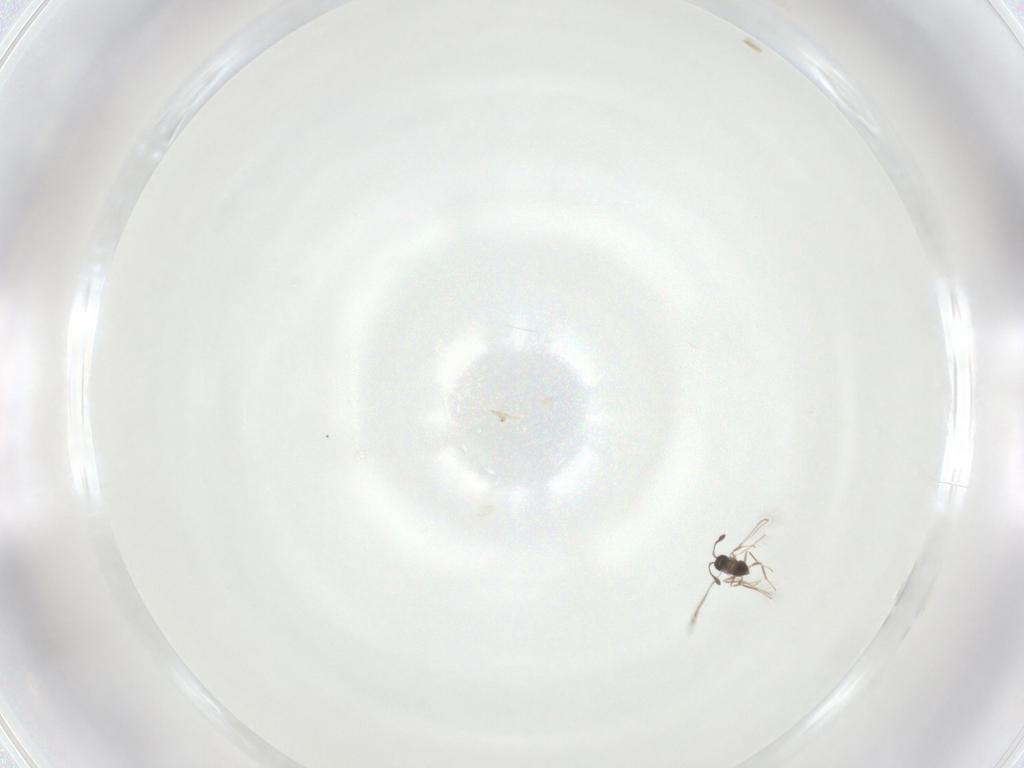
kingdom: Animalia
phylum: Arthropoda
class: Insecta
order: Hymenoptera
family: Mymaridae
